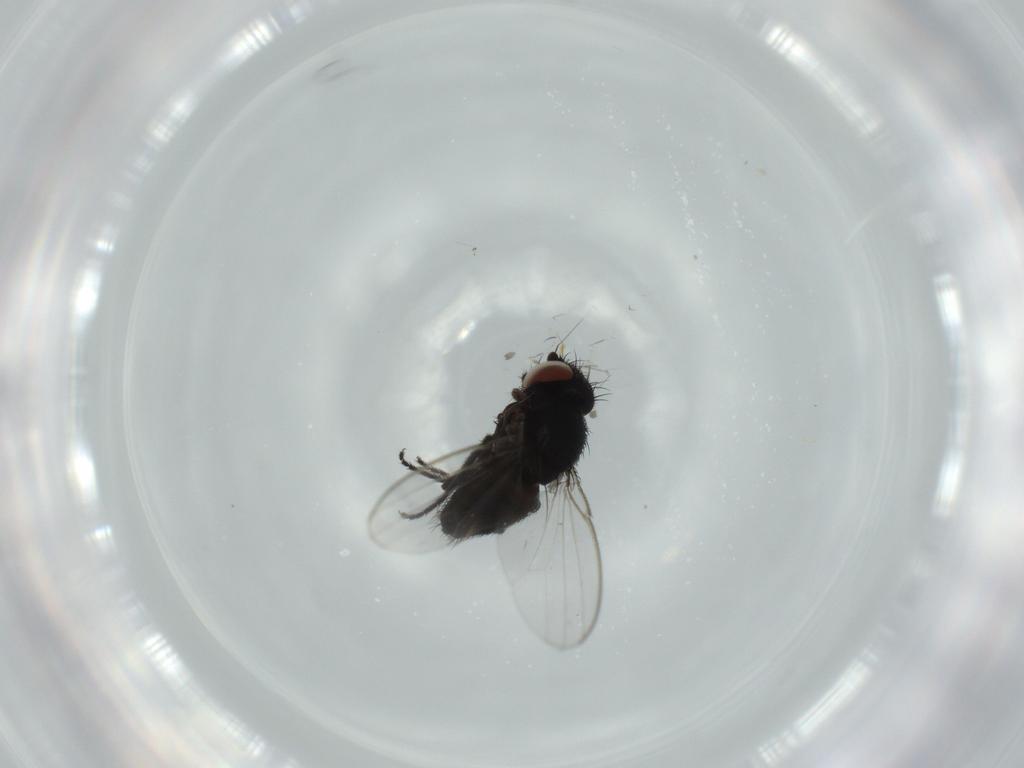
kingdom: Animalia
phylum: Arthropoda
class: Insecta
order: Diptera
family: Milichiidae
